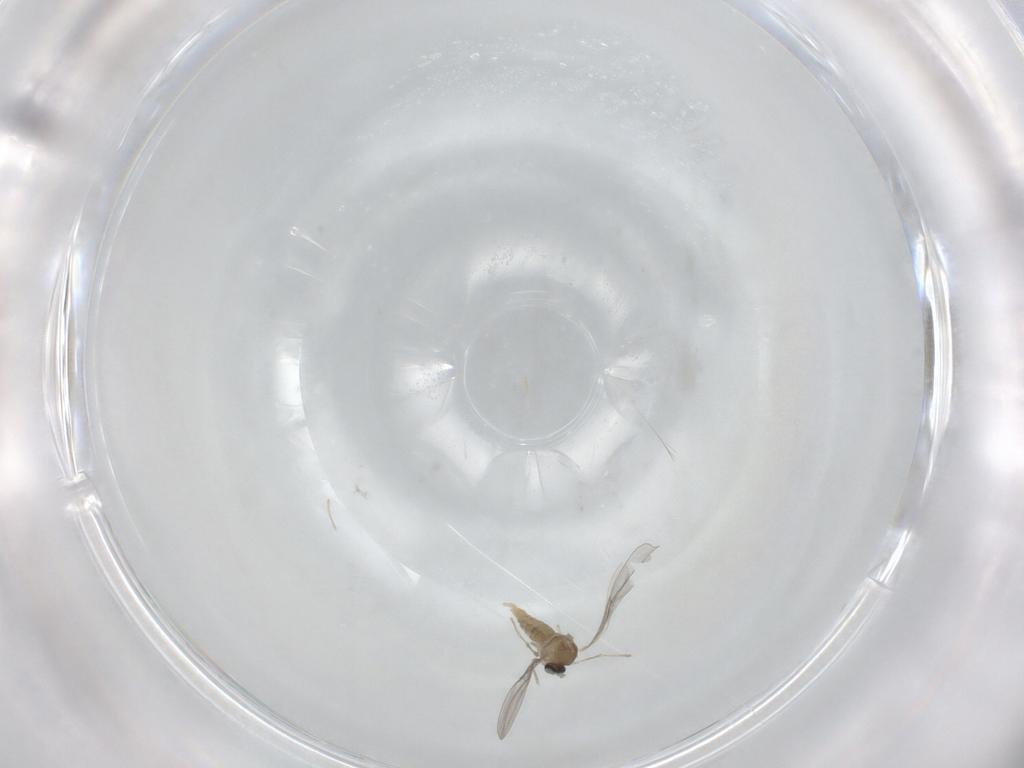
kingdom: Animalia
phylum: Arthropoda
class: Insecta
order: Diptera
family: Cecidomyiidae
